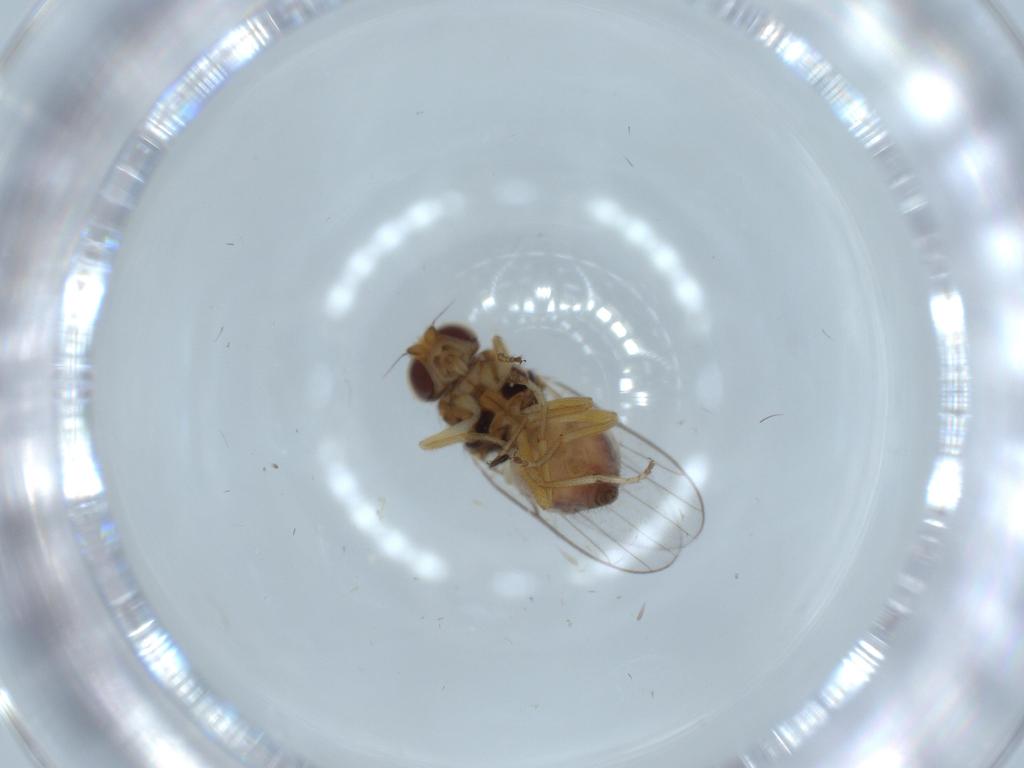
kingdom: Animalia
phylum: Arthropoda
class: Insecta
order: Diptera
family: Chloropidae
